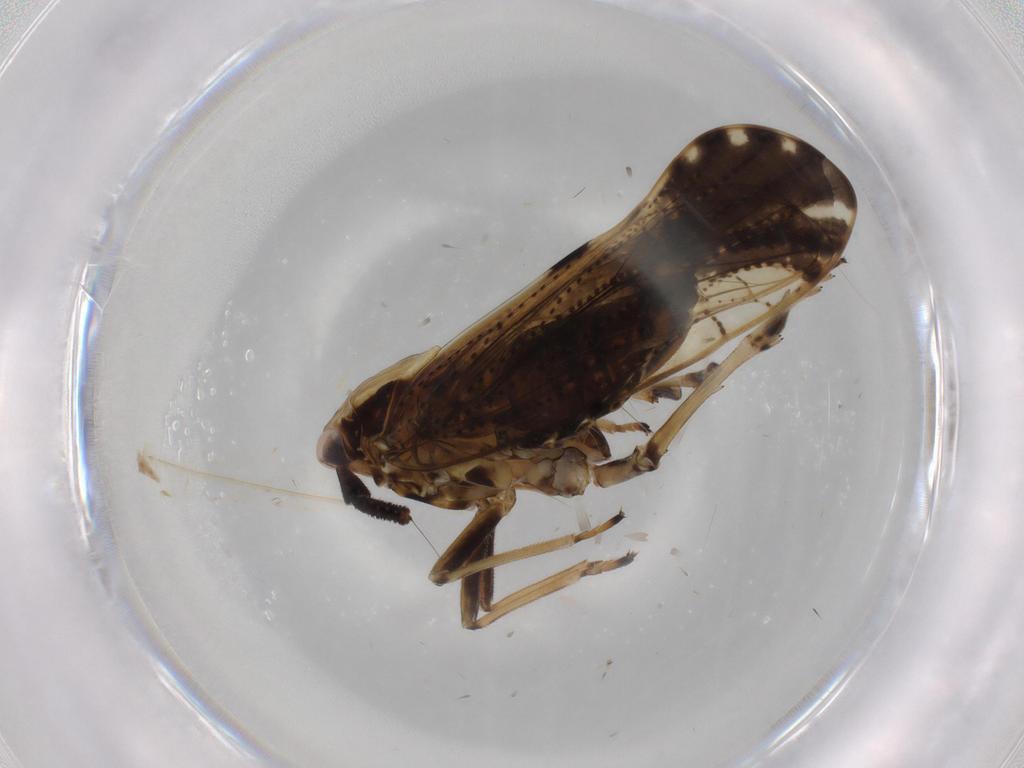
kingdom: Animalia
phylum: Arthropoda
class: Insecta
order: Hemiptera
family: Delphacidae
